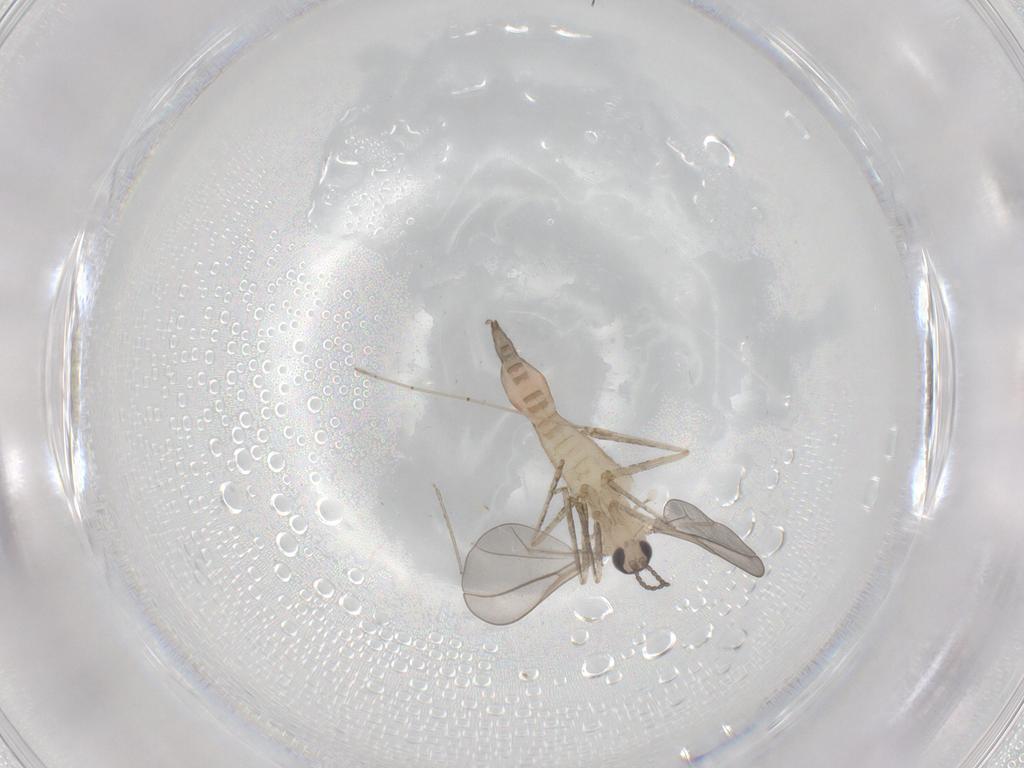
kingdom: Animalia
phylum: Arthropoda
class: Insecta
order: Diptera
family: Cecidomyiidae
